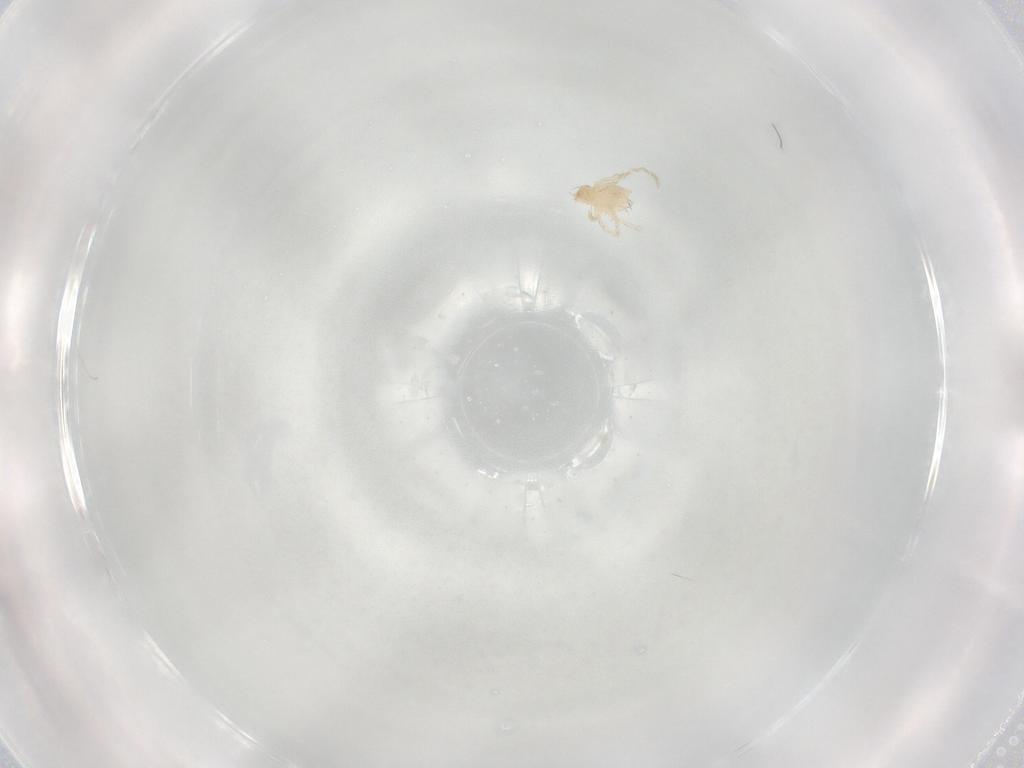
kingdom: Animalia
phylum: Arthropoda
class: Arachnida
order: Trombidiformes
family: Erythraeidae
